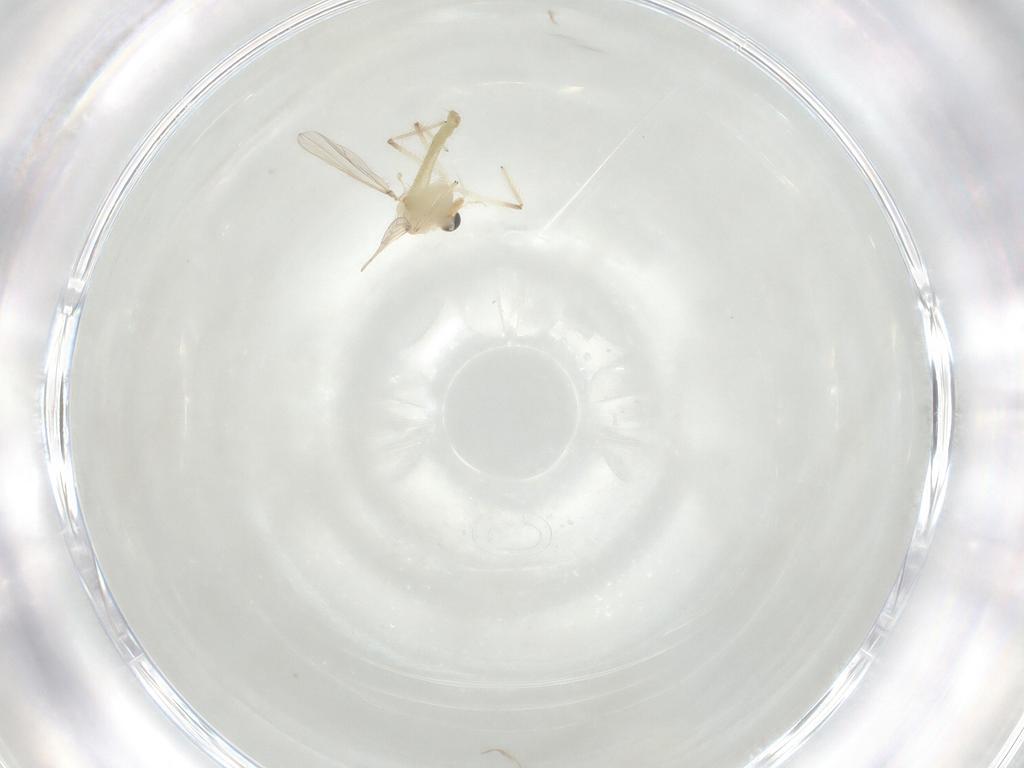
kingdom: Animalia
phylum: Arthropoda
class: Insecta
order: Diptera
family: Chironomidae
